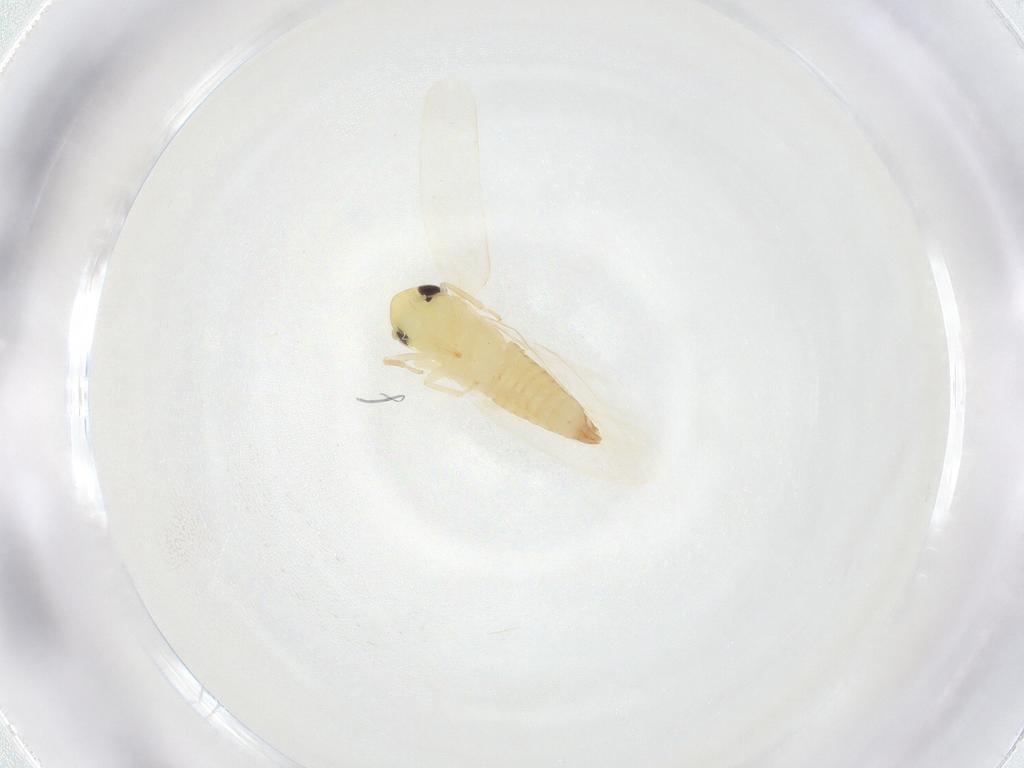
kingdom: Animalia
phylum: Arthropoda
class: Insecta
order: Hemiptera
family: Cicadellidae
